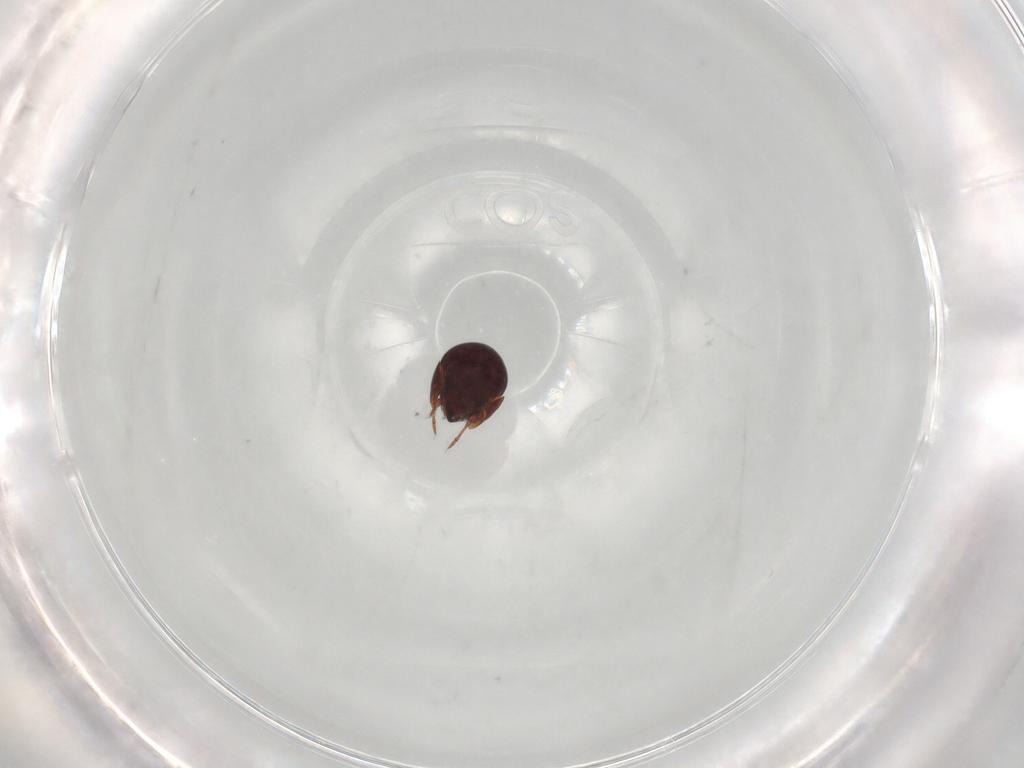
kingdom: Animalia
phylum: Arthropoda
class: Arachnida
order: Sarcoptiformes
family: Galumnidae
